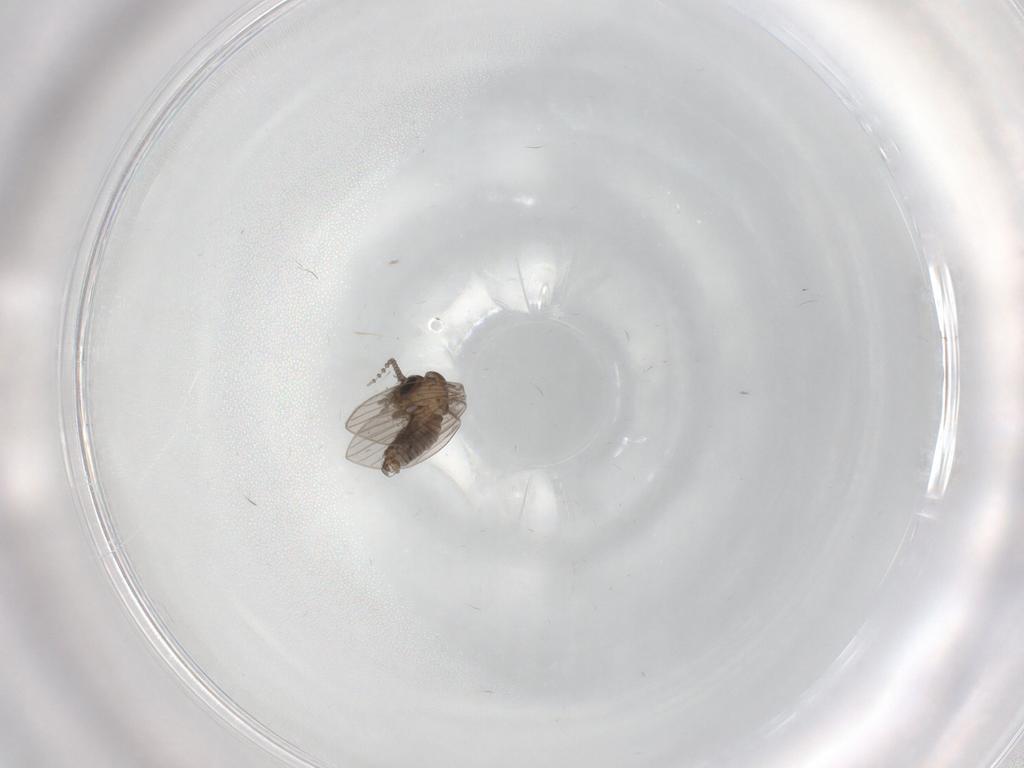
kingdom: Animalia
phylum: Arthropoda
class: Insecta
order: Diptera
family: Psychodidae
